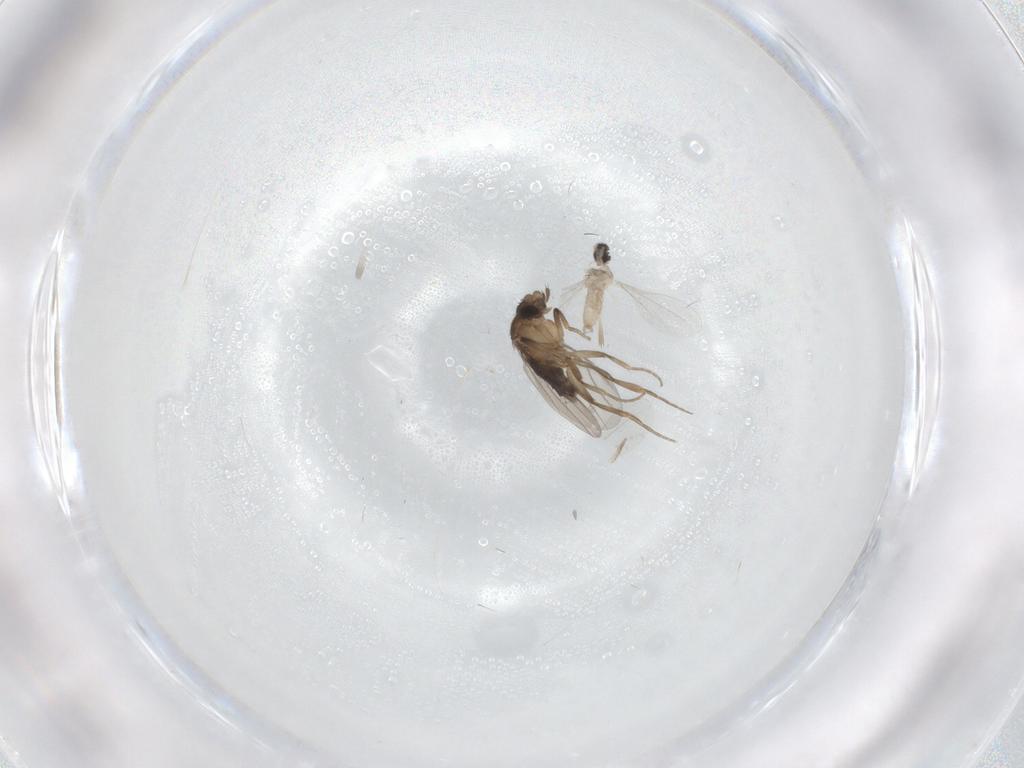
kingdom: Animalia
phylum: Arthropoda
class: Insecta
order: Diptera
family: Phoridae
